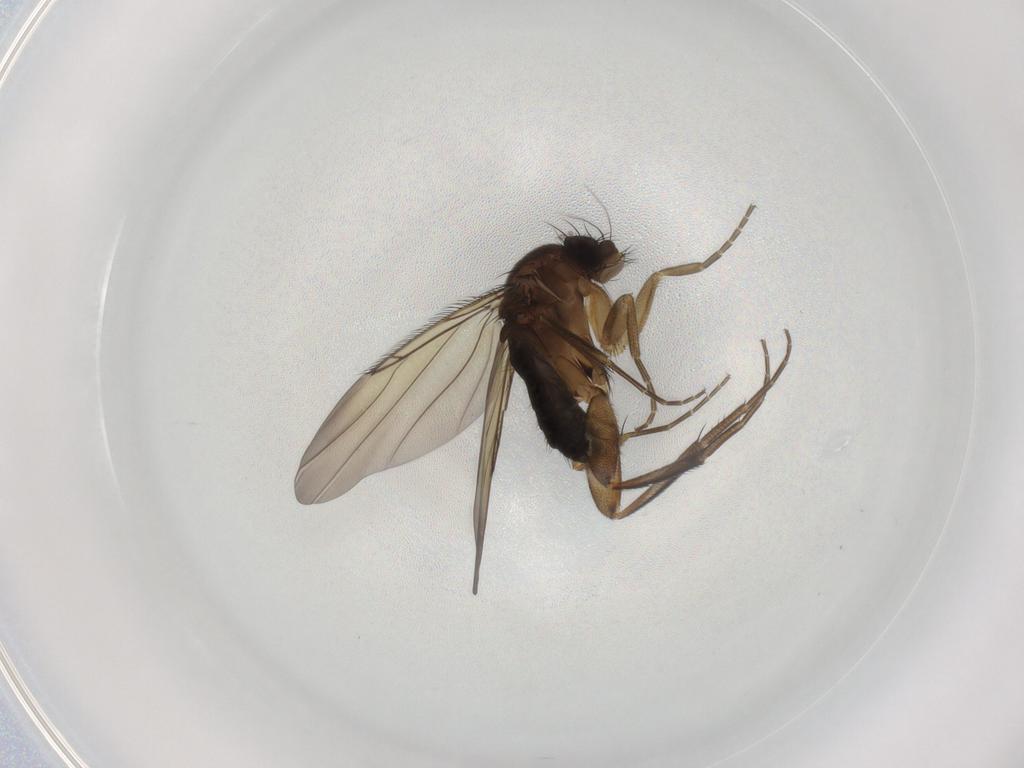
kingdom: Animalia
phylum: Arthropoda
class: Insecta
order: Diptera
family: Phoridae
